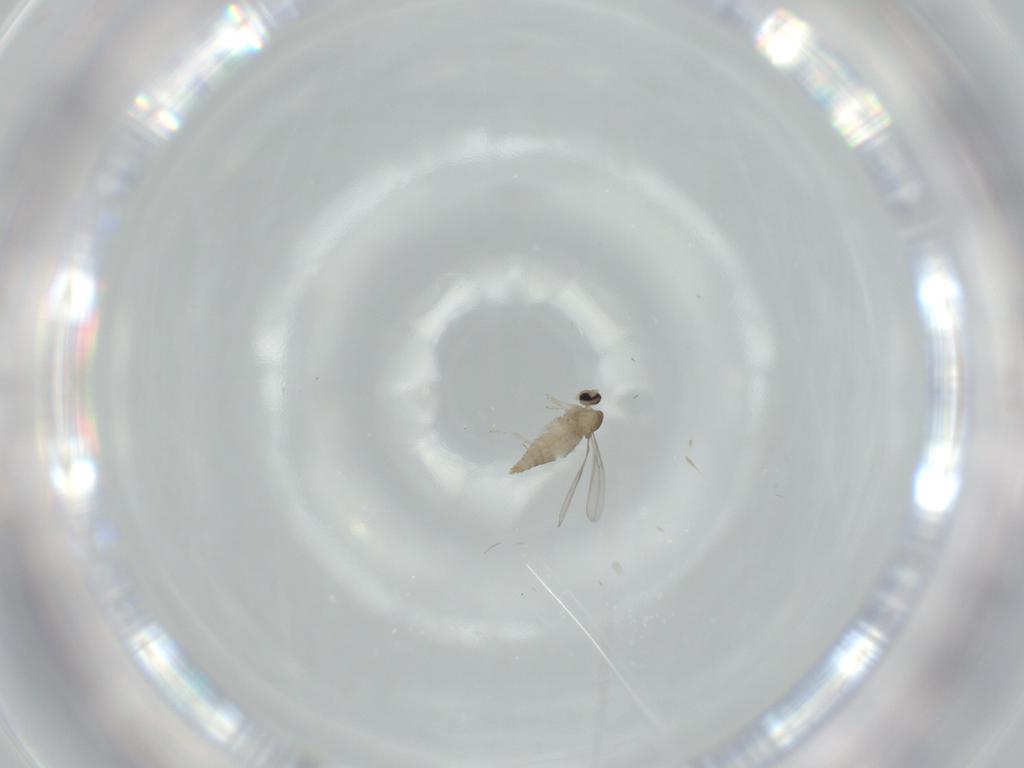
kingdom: Animalia
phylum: Arthropoda
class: Insecta
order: Diptera
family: Cecidomyiidae
